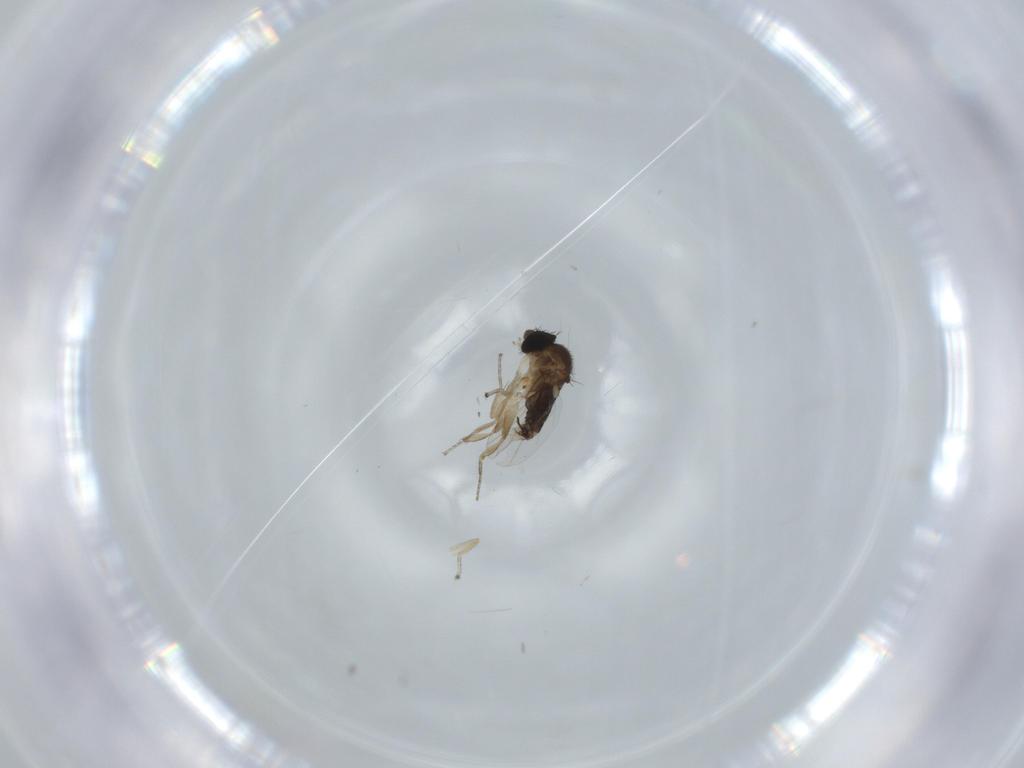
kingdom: Animalia
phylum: Arthropoda
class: Insecta
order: Diptera
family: Phoridae
